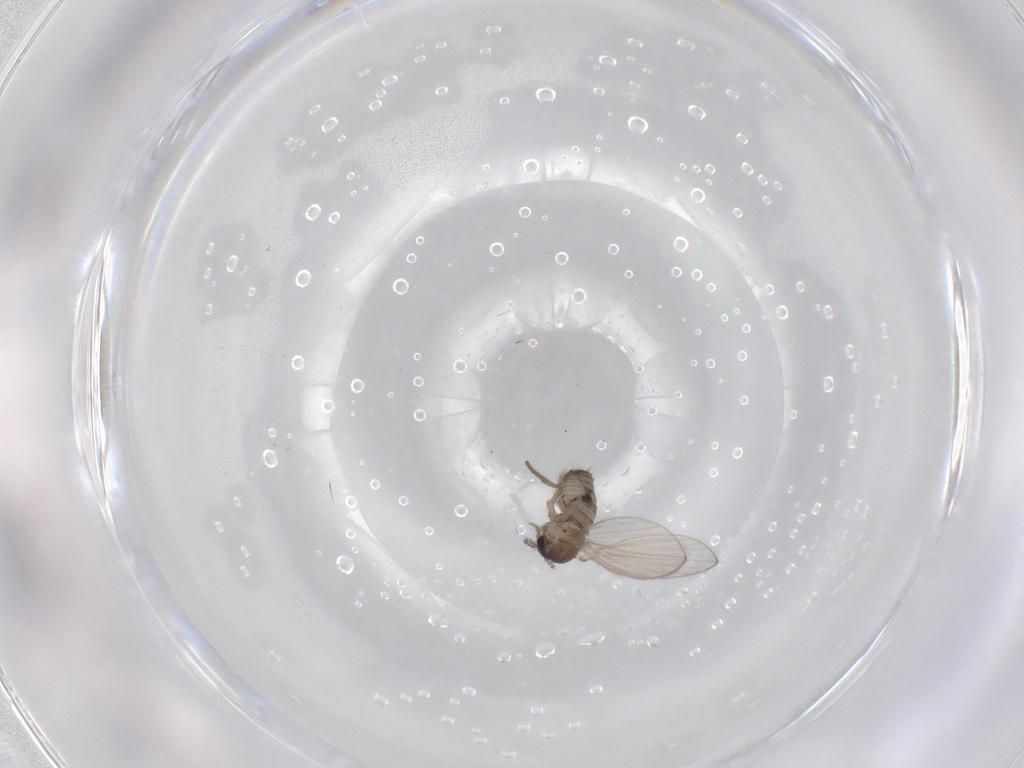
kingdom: Animalia
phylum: Arthropoda
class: Insecta
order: Diptera
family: Psychodidae
